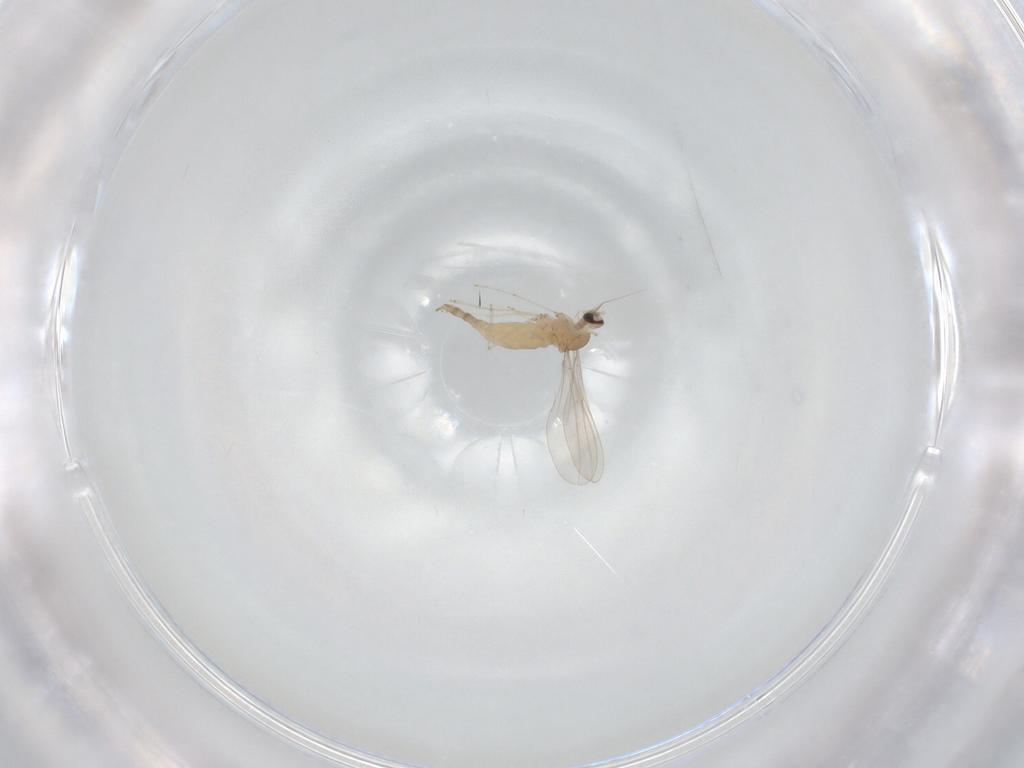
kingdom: Animalia
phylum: Arthropoda
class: Insecta
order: Diptera
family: Cecidomyiidae
